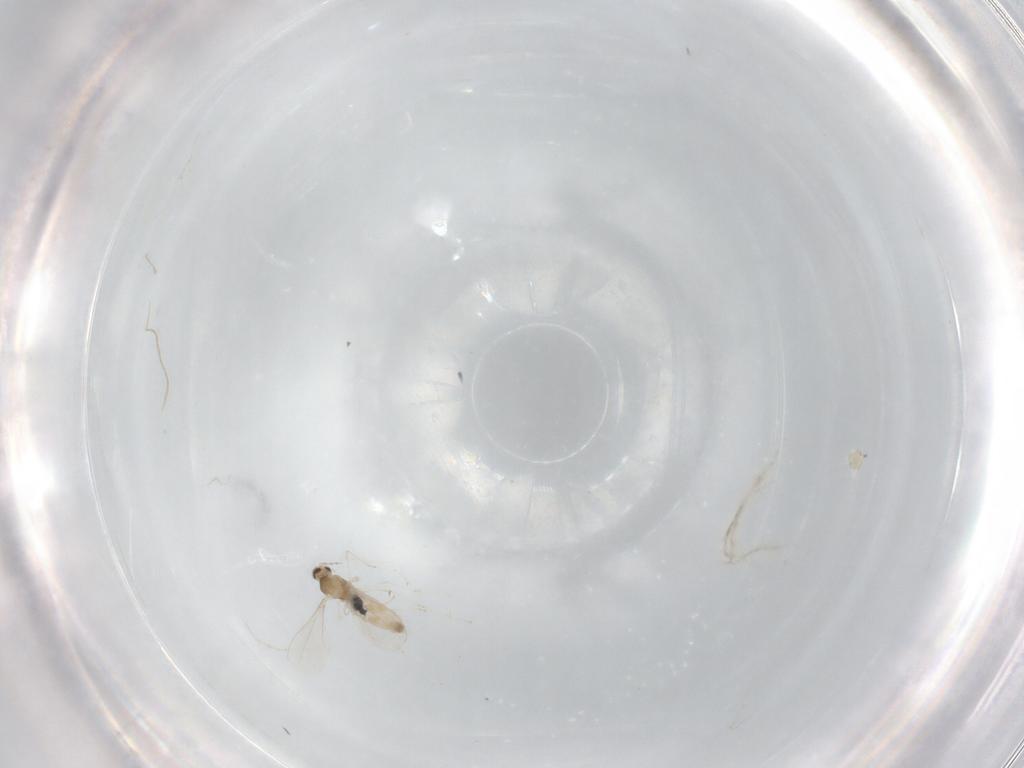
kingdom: Animalia
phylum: Arthropoda
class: Insecta
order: Diptera
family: Cecidomyiidae
